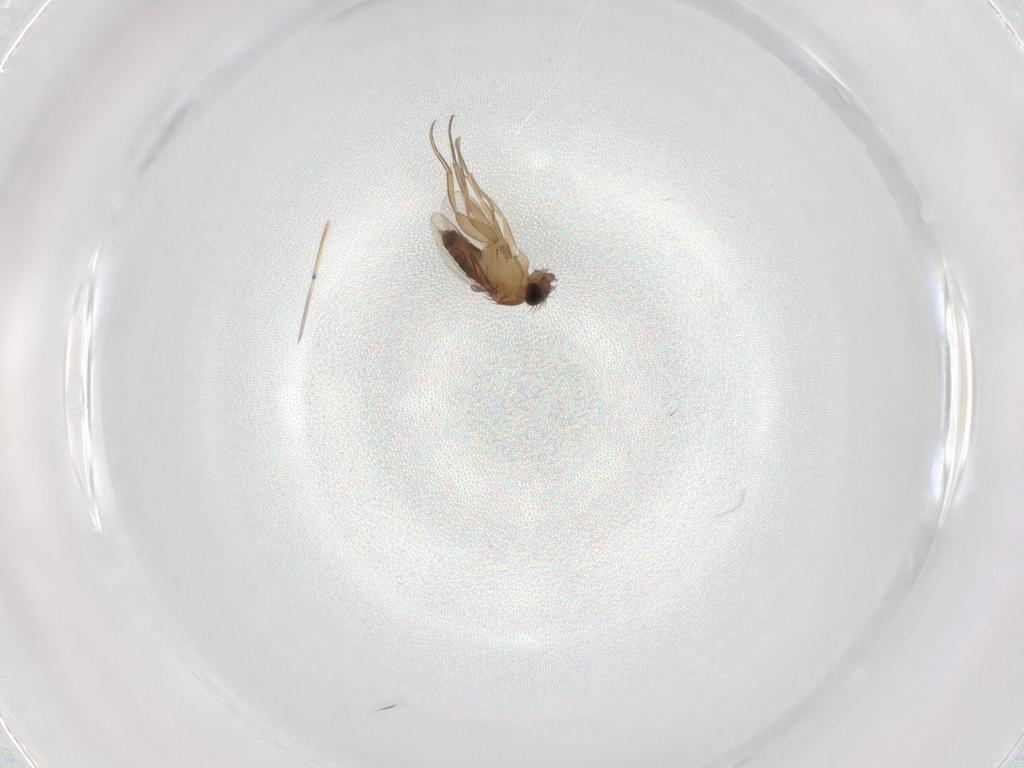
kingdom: Animalia
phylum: Arthropoda
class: Insecta
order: Diptera
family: Chironomidae
